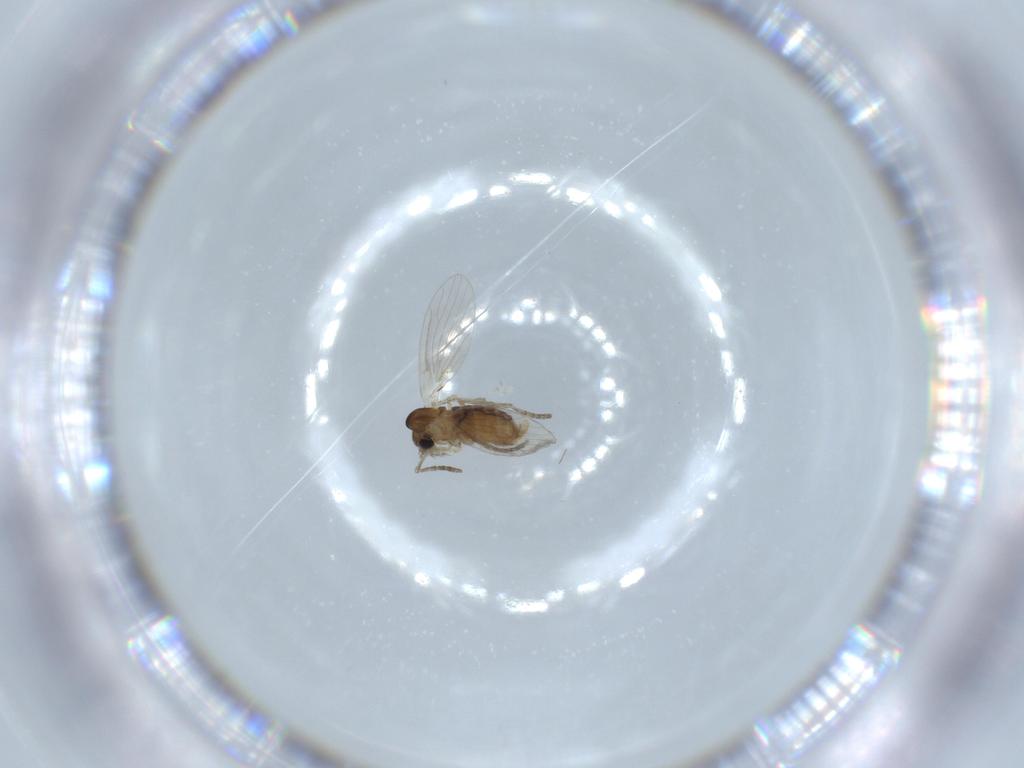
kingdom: Animalia
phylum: Arthropoda
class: Insecta
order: Diptera
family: Psychodidae
